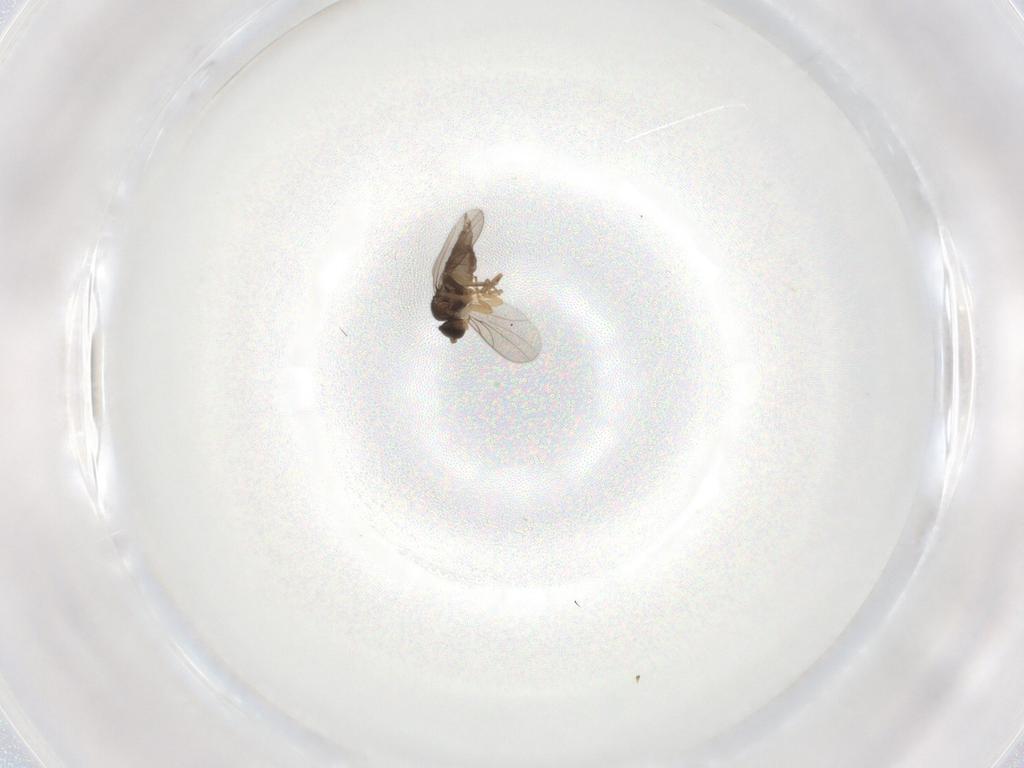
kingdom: Animalia
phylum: Arthropoda
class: Insecta
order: Diptera
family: Hybotidae
